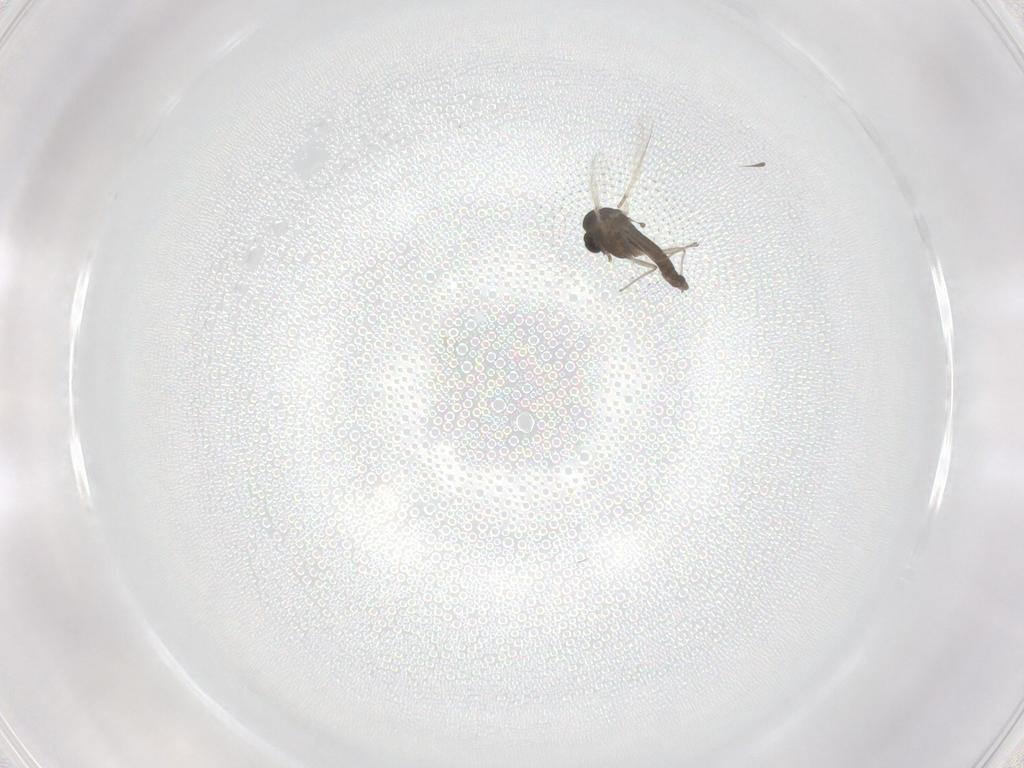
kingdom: Animalia
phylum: Arthropoda
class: Insecta
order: Diptera
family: Chironomidae
